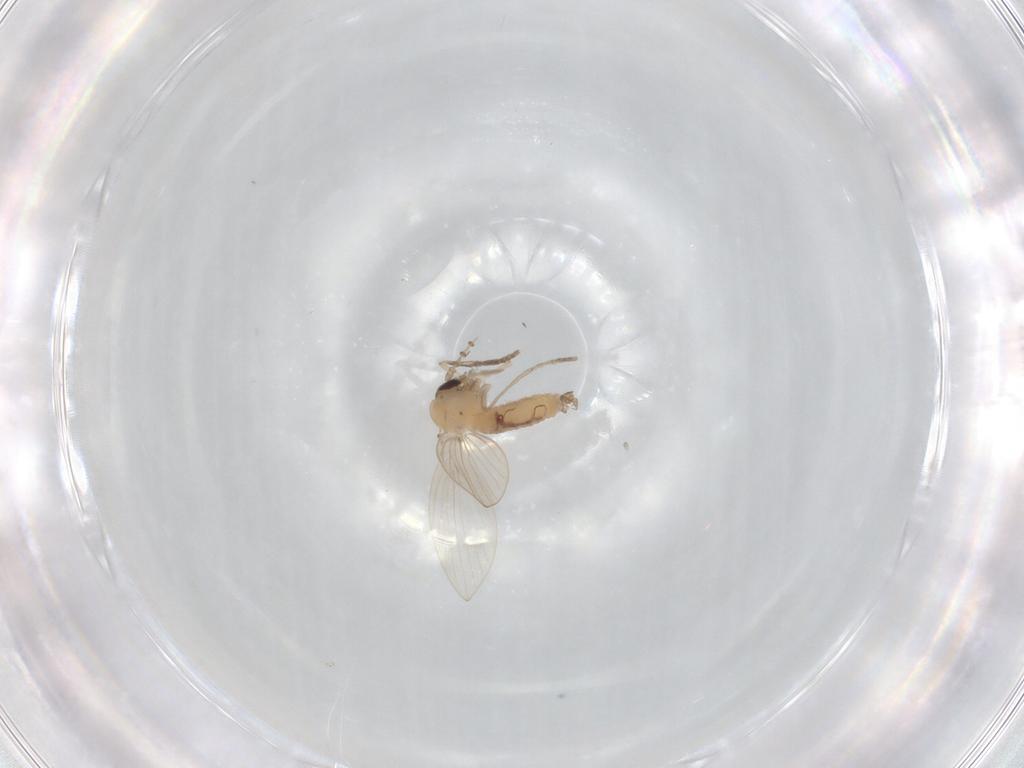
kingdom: Animalia
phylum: Arthropoda
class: Insecta
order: Diptera
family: Psychodidae
